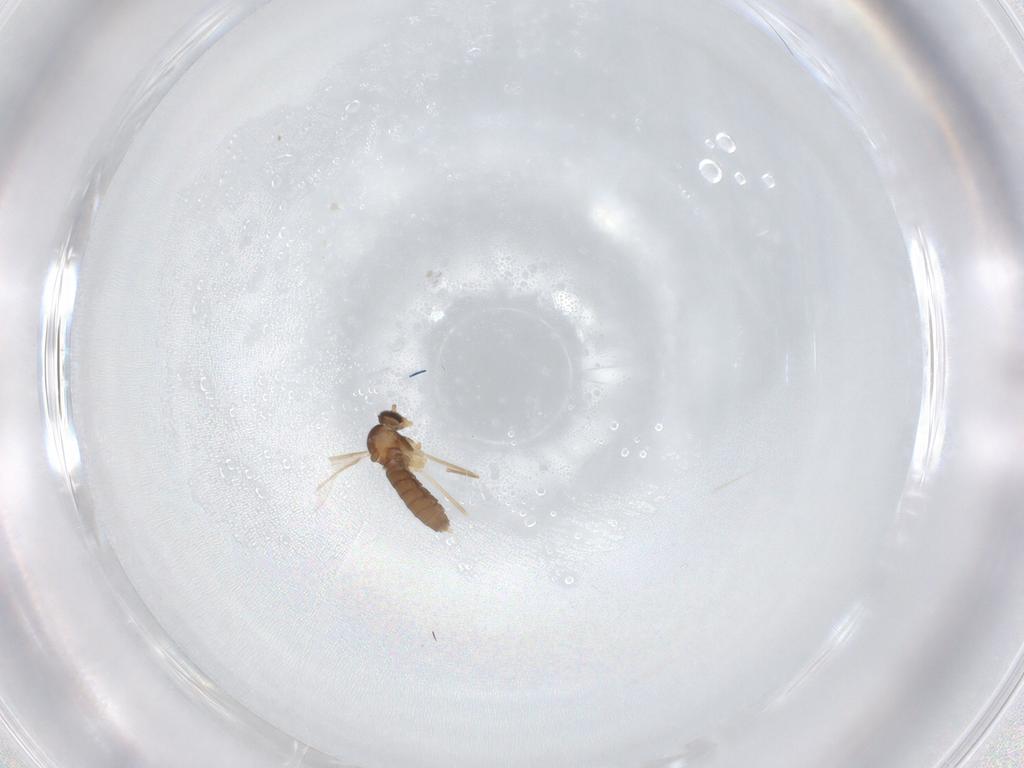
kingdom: Animalia
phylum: Arthropoda
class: Insecta
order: Diptera
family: Cecidomyiidae
